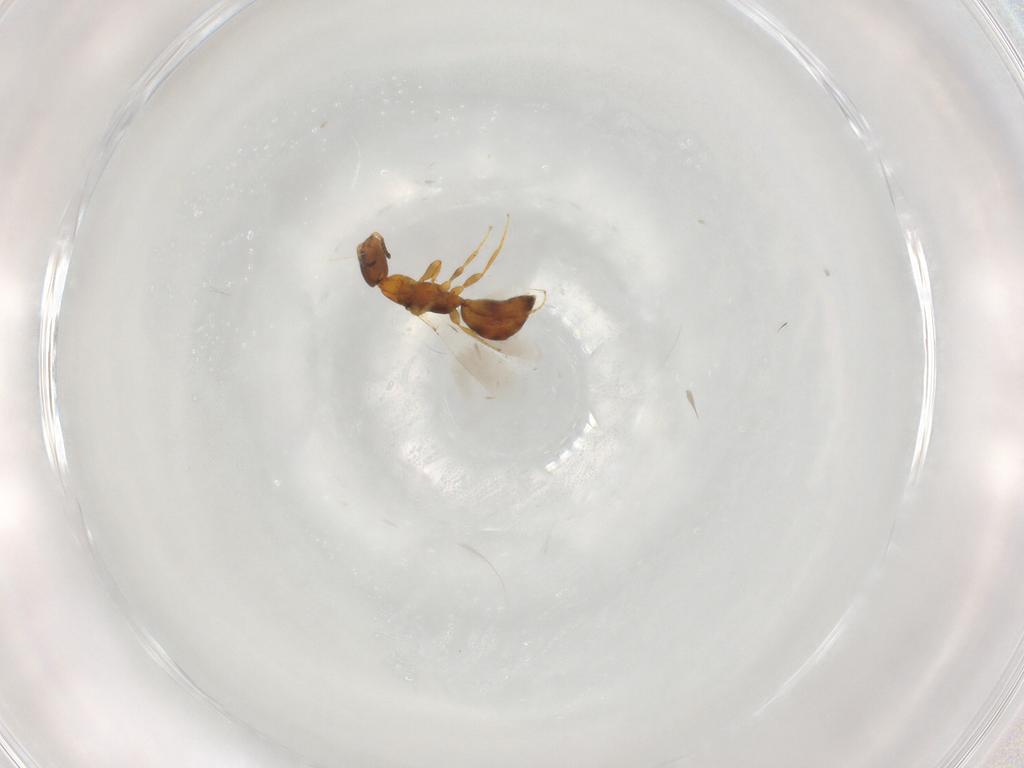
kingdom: Animalia
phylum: Arthropoda
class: Insecta
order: Hymenoptera
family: Bethylidae
